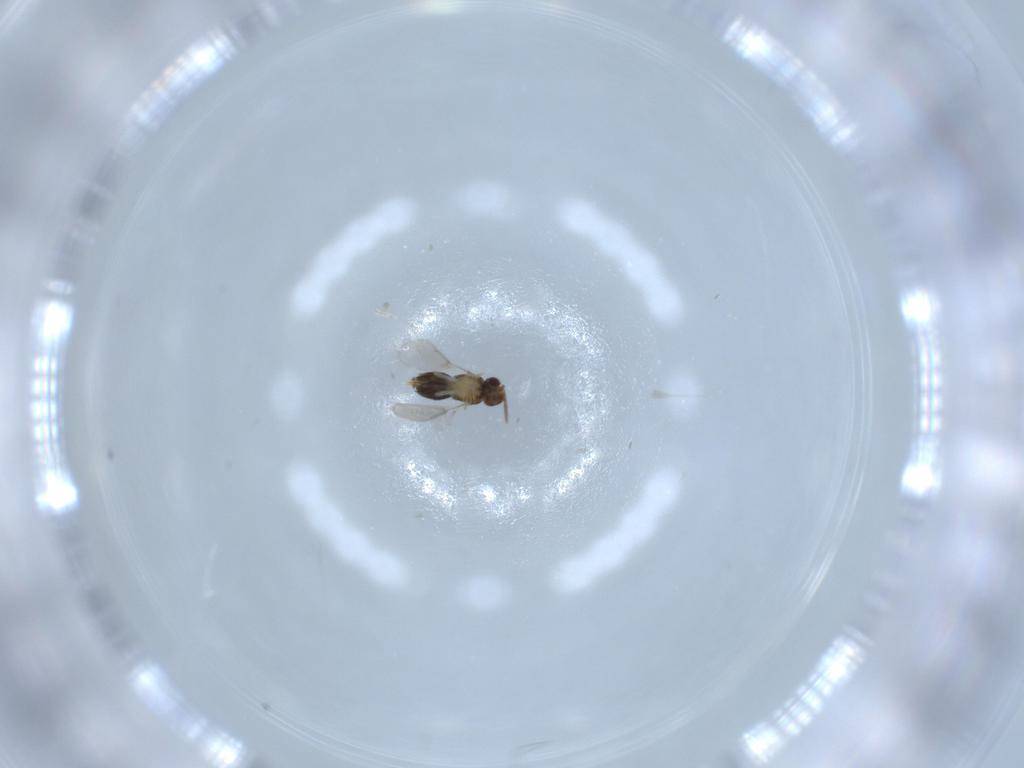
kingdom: Animalia
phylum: Arthropoda
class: Insecta
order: Hymenoptera
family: Aphelinidae
